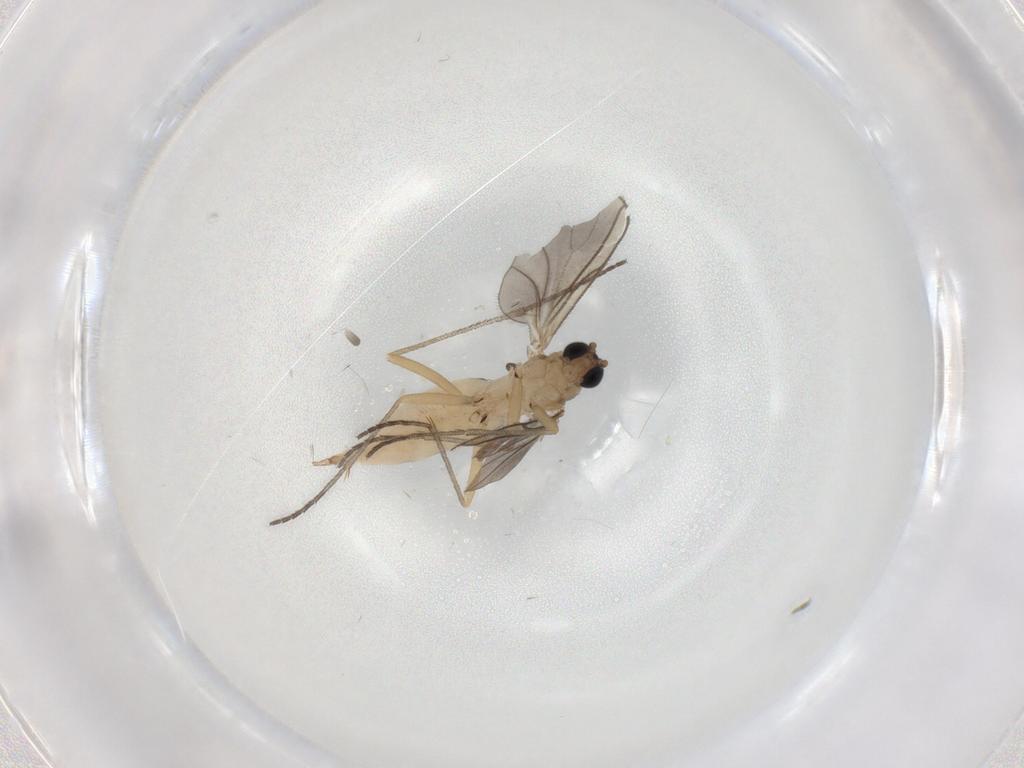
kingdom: Animalia
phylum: Arthropoda
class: Insecta
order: Diptera
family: Sciaridae
